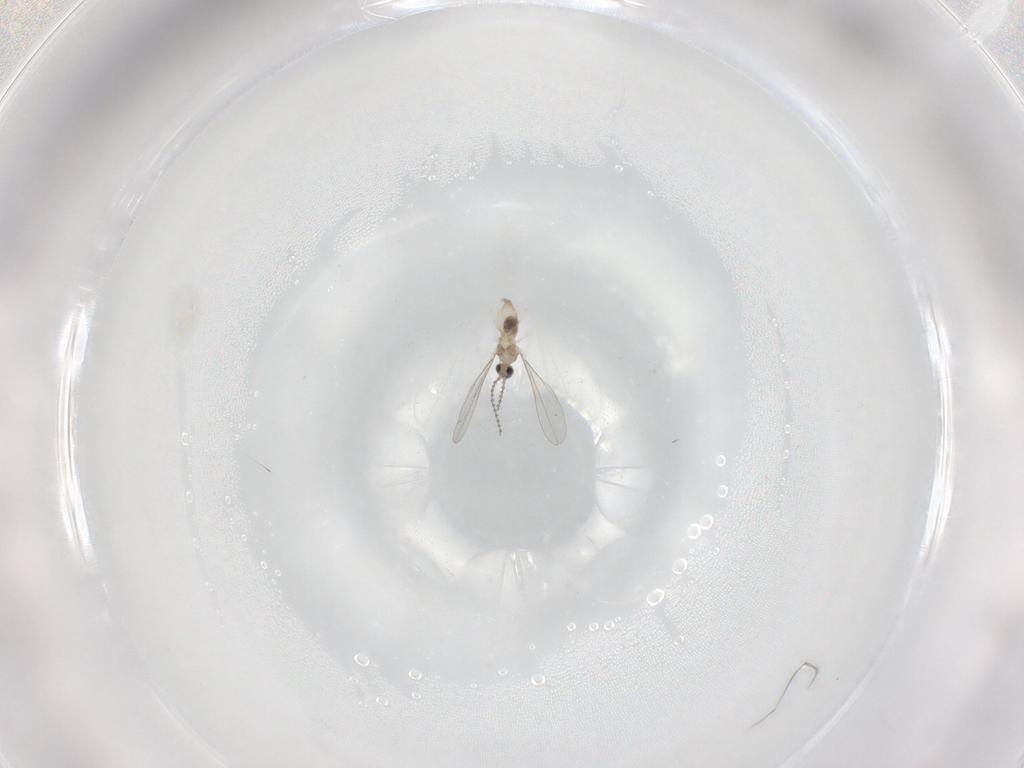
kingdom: Animalia
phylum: Arthropoda
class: Insecta
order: Diptera
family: Cecidomyiidae
